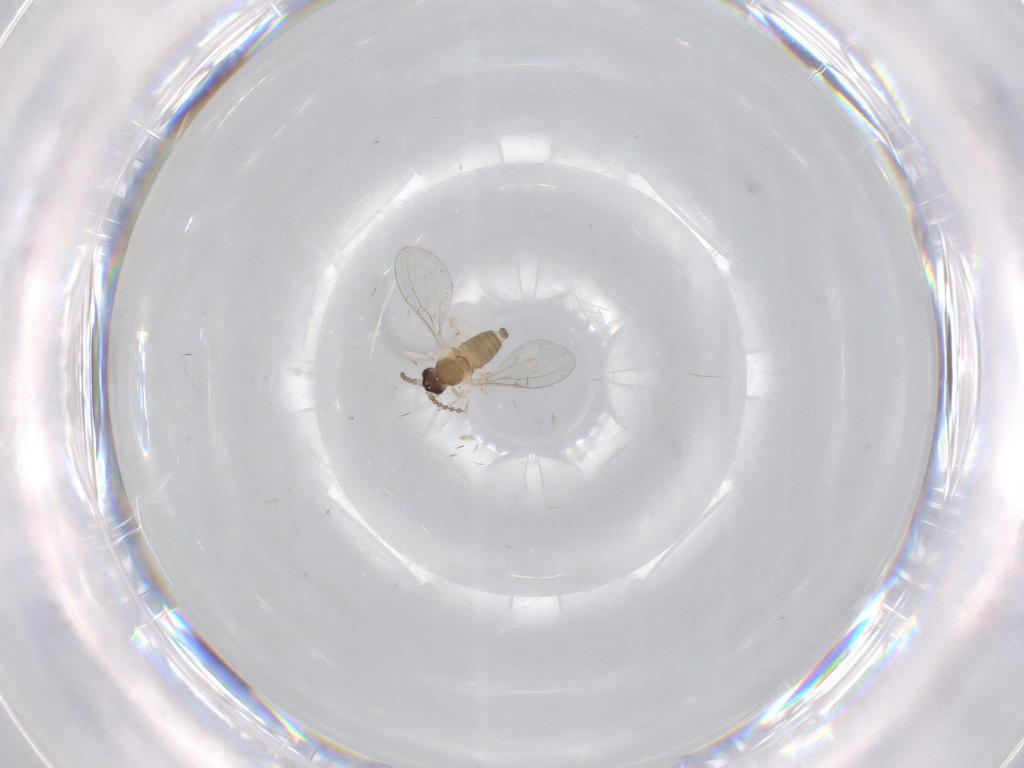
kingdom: Animalia
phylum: Arthropoda
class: Insecta
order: Diptera
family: Cecidomyiidae
